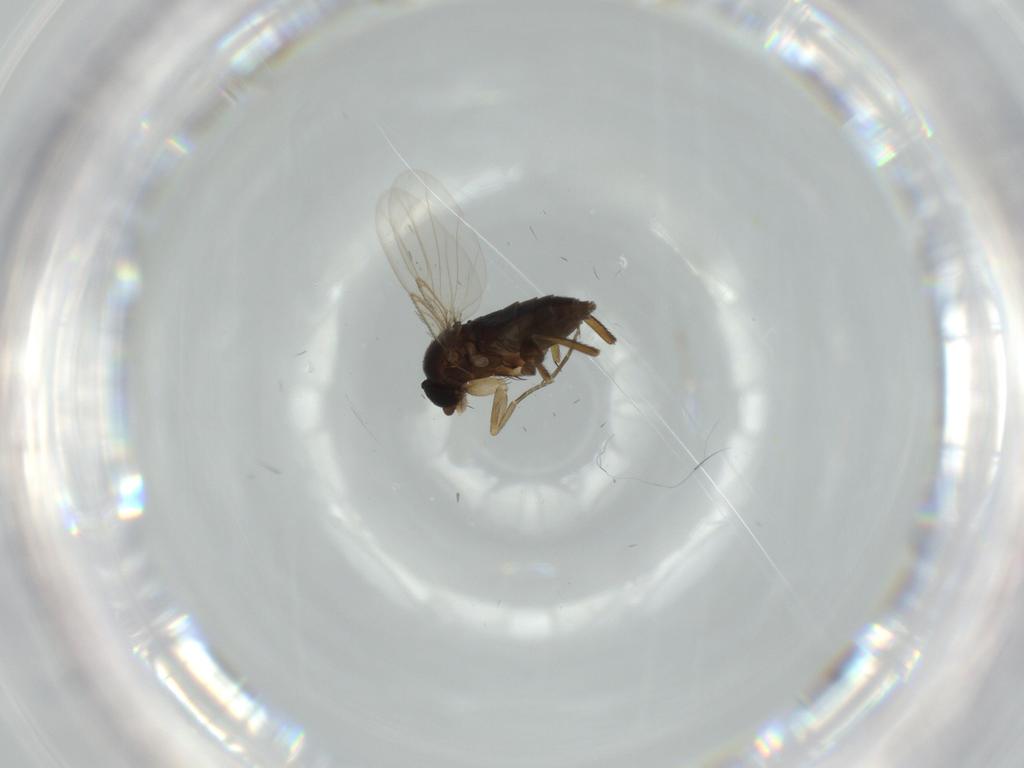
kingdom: Animalia
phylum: Arthropoda
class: Insecta
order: Diptera
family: Phoridae
